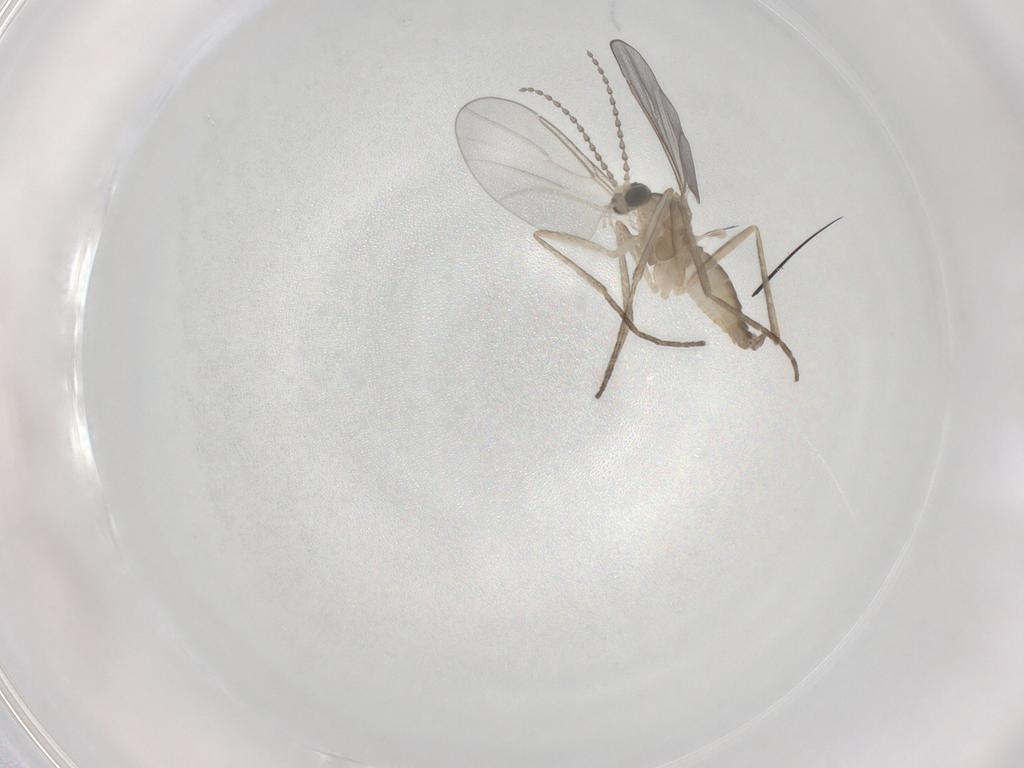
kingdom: Animalia
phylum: Arthropoda
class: Insecta
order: Diptera
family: Cecidomyiidae
